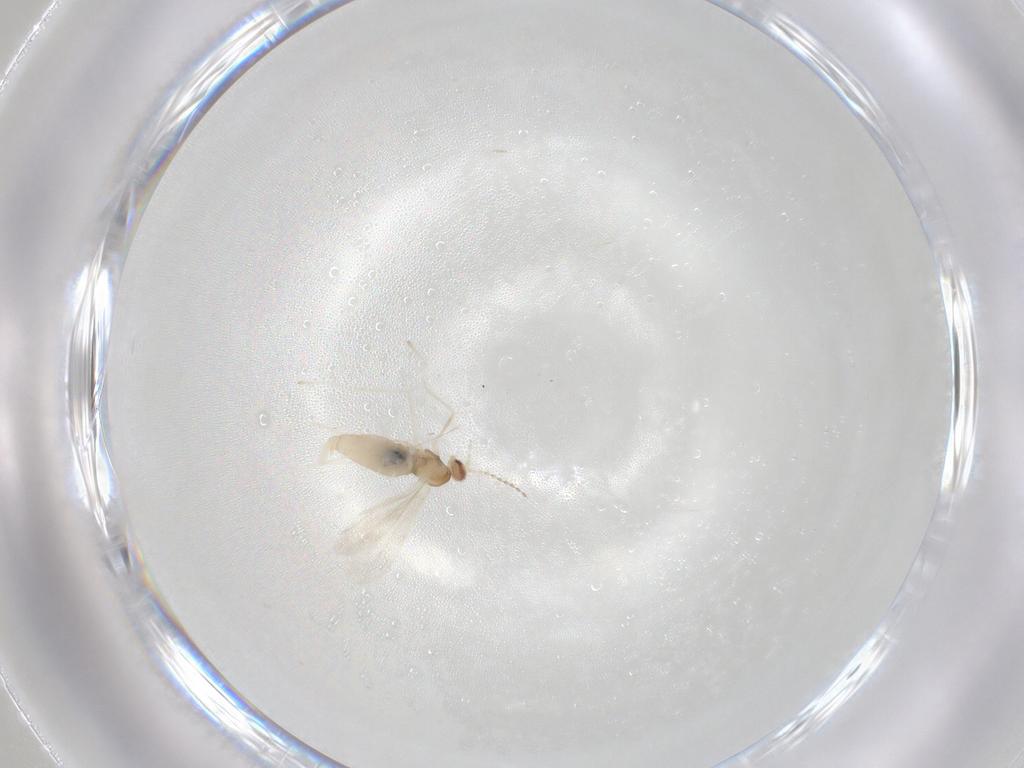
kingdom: Animalia
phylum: Arthropoda
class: Insecta
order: Diptera
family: Cecidomyiidae
